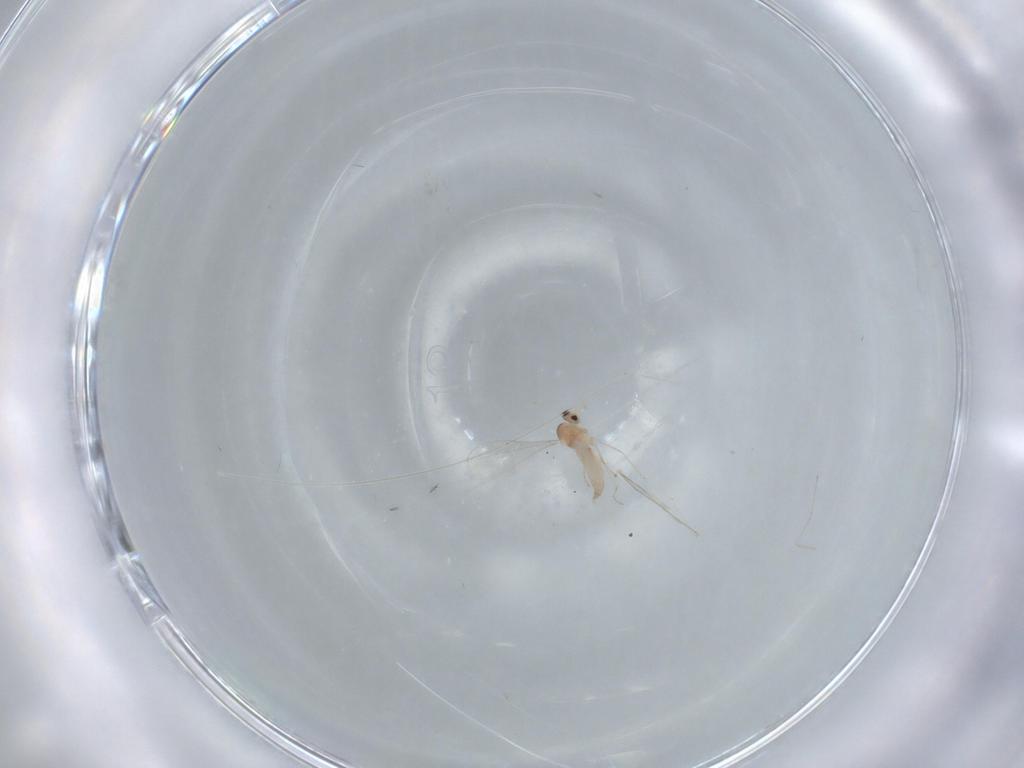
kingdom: Animalia
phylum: Arthropoda
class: Insecta
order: Diptera
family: Cecidomyiidae
